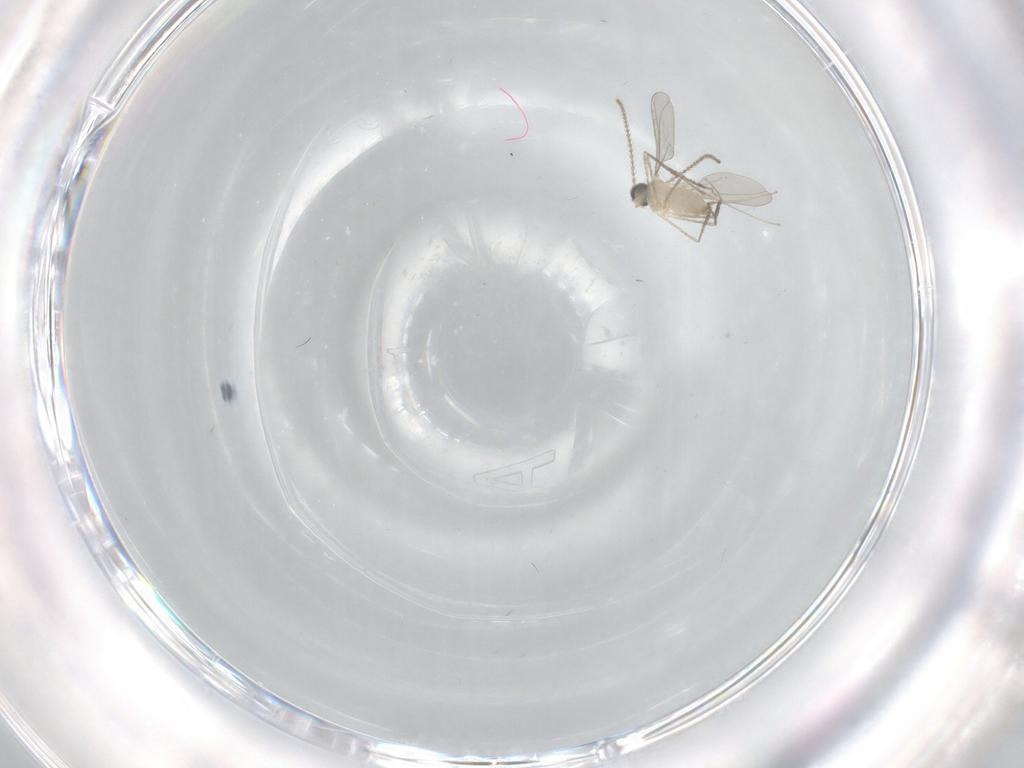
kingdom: Animalia
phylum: Arthropoda
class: Insecta
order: Diptera
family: Cecidomyiidae
